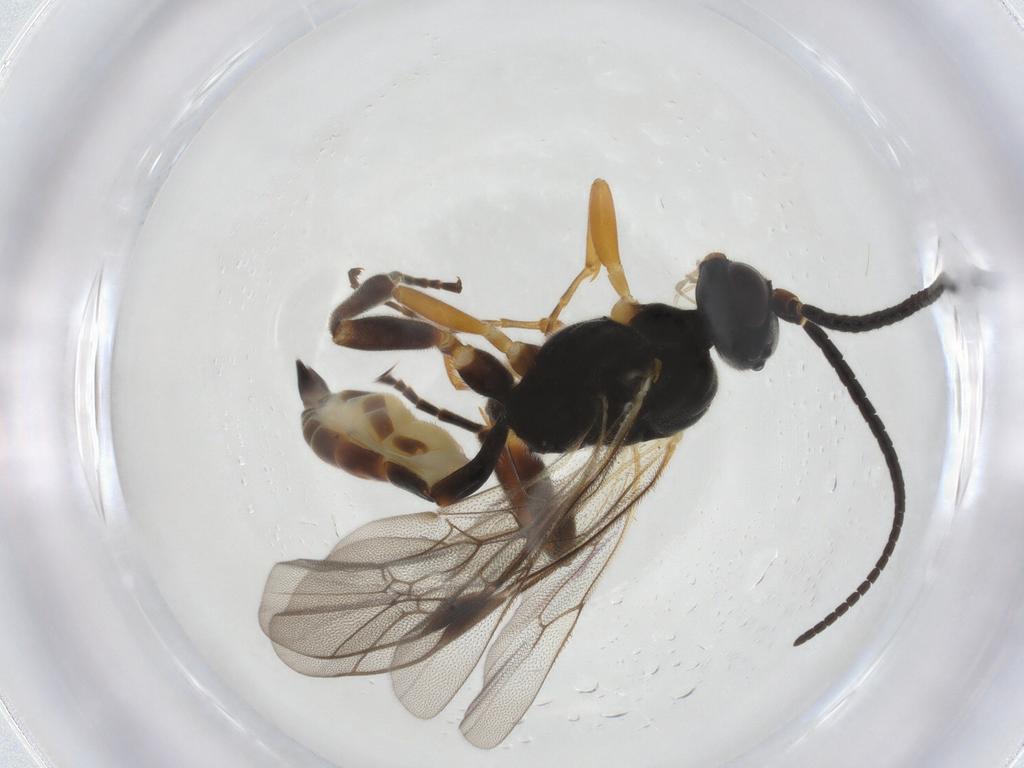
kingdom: Animalia
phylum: Arthropoda
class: Insecta
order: Hymenoptera
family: Ichneumonidae
